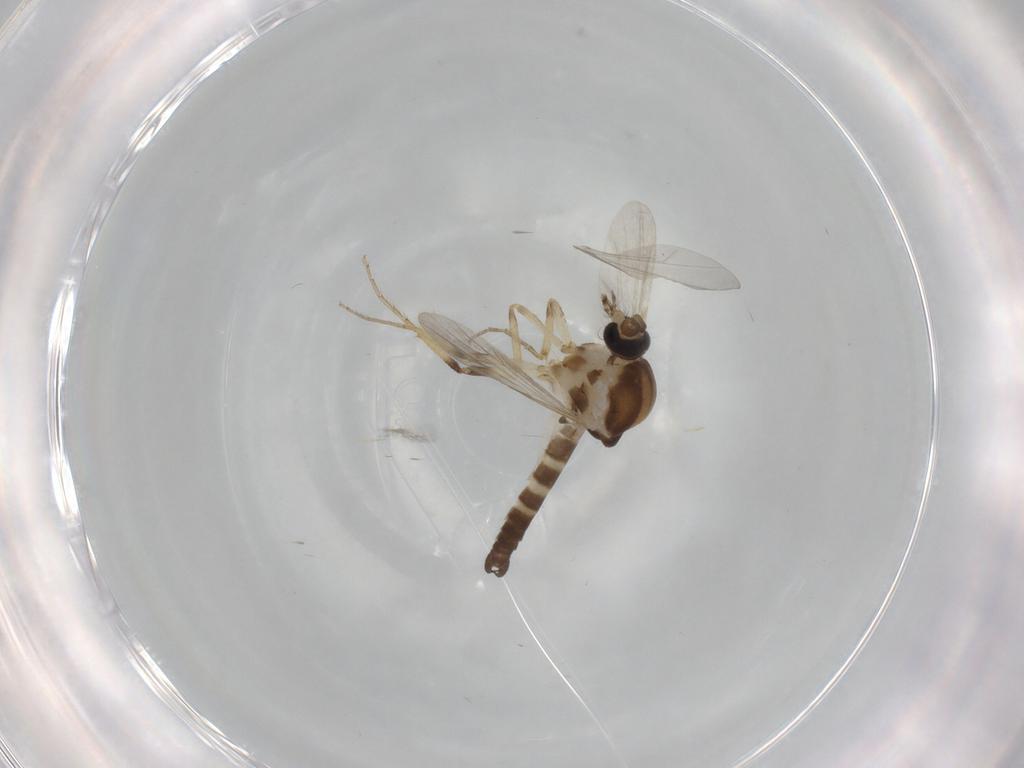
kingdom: Animalia
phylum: Arthropoda
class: Insecta
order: Diptera
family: Ceratopogonidae
